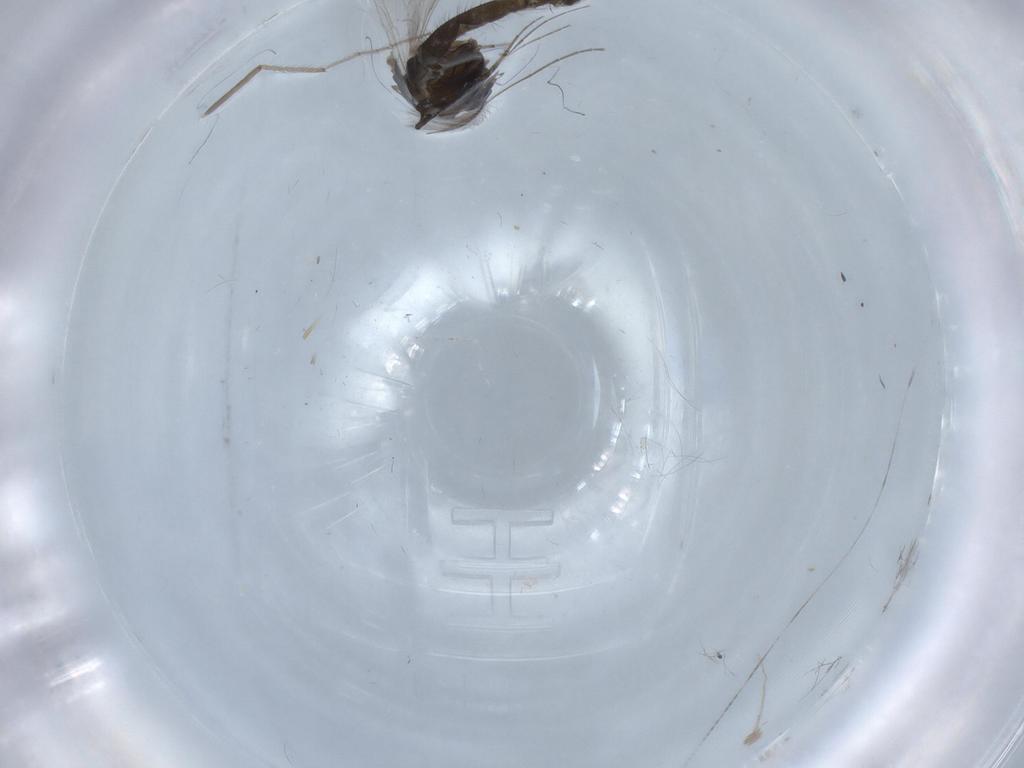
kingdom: Animalia
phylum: Arthropoda
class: Insecta
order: Diptera
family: Chironomidae
